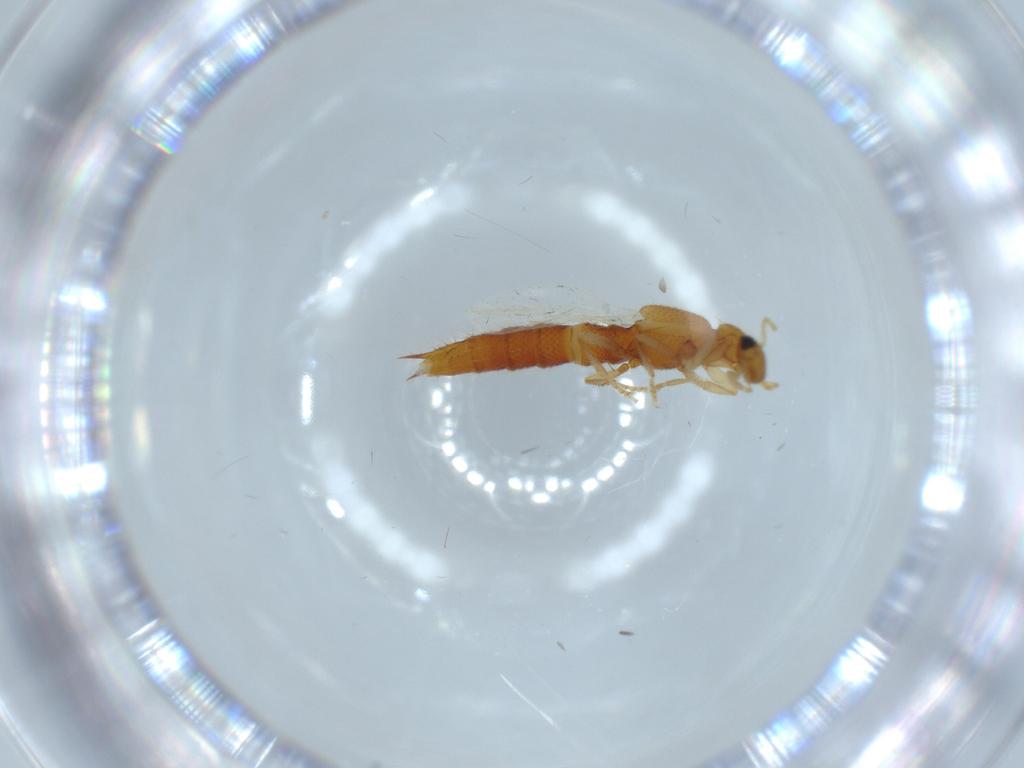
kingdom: Animalia
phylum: Arthropoda
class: Insecta
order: Coleoptera
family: Staphylinidae
